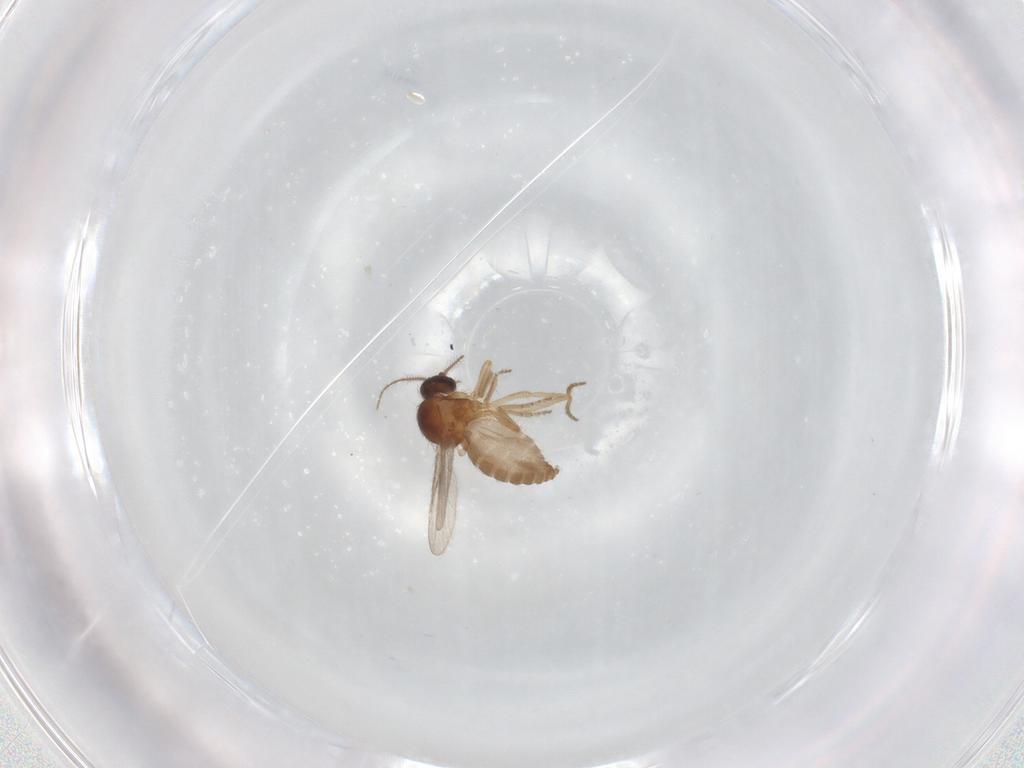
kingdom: Animalia
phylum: Arthropoda
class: Insecta
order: Diptera
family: Ceratopogonidae
